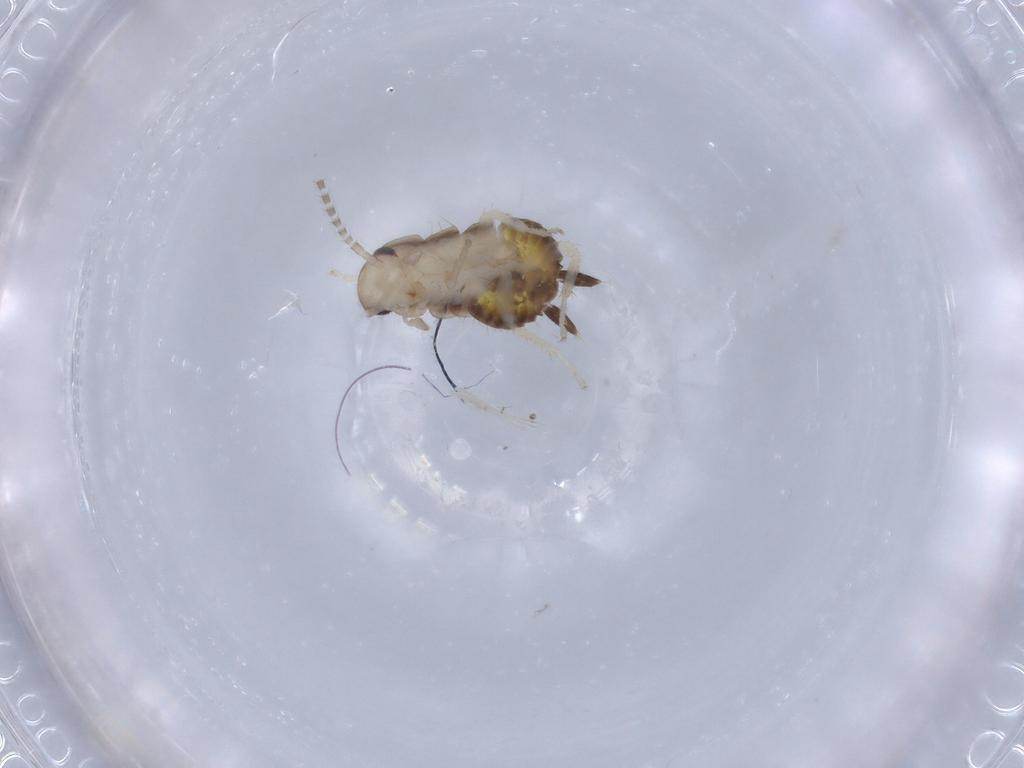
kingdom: Animalia
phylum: Arthropoda
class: Insecta
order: Blattodea
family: Ectobiidae
